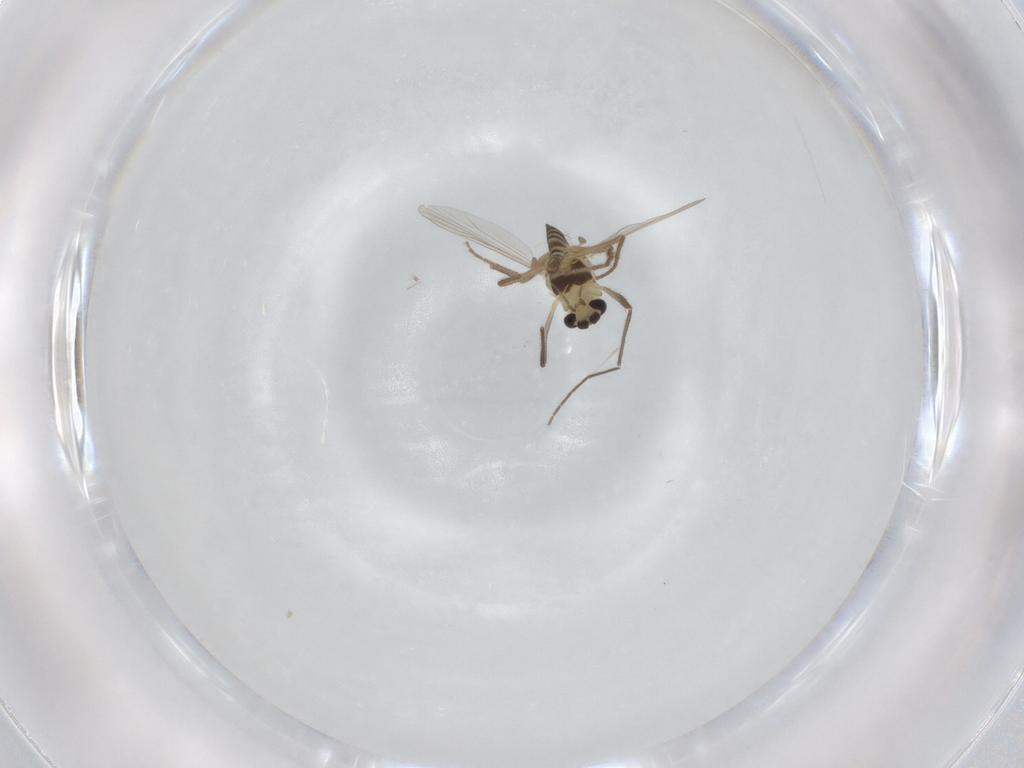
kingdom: Animalia
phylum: Arthropoda
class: Insecta
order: Diptera
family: Chironomidae
